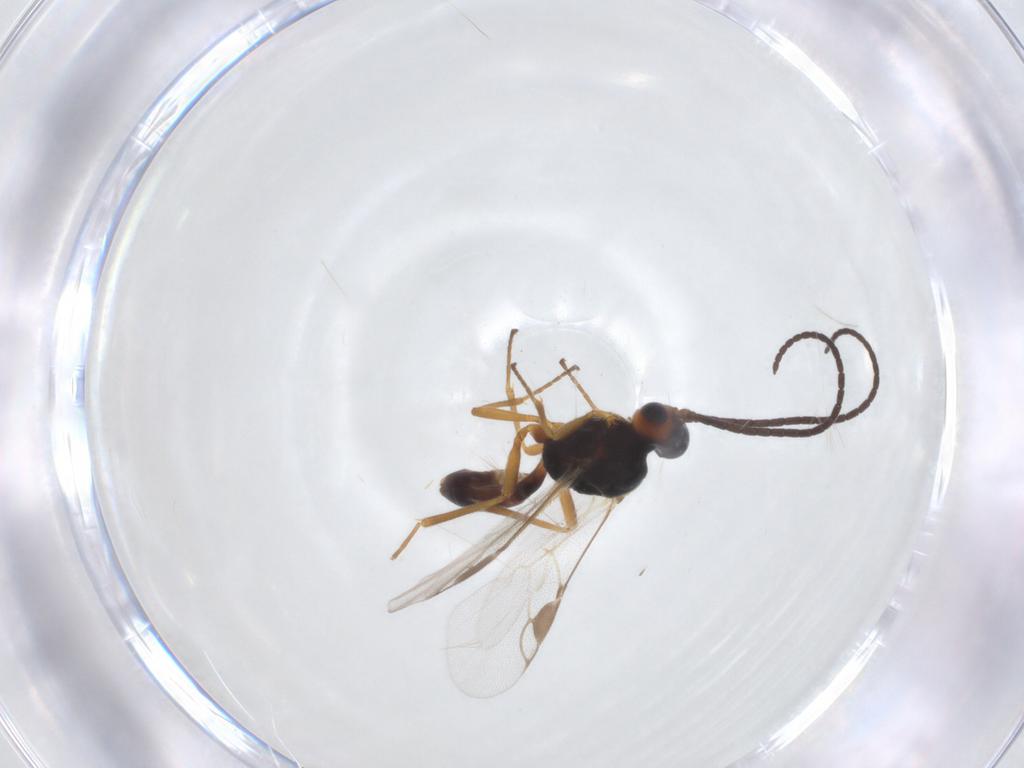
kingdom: Animalia
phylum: Arthropoda
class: Insecta
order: Hymenoptera
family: Braconidae
